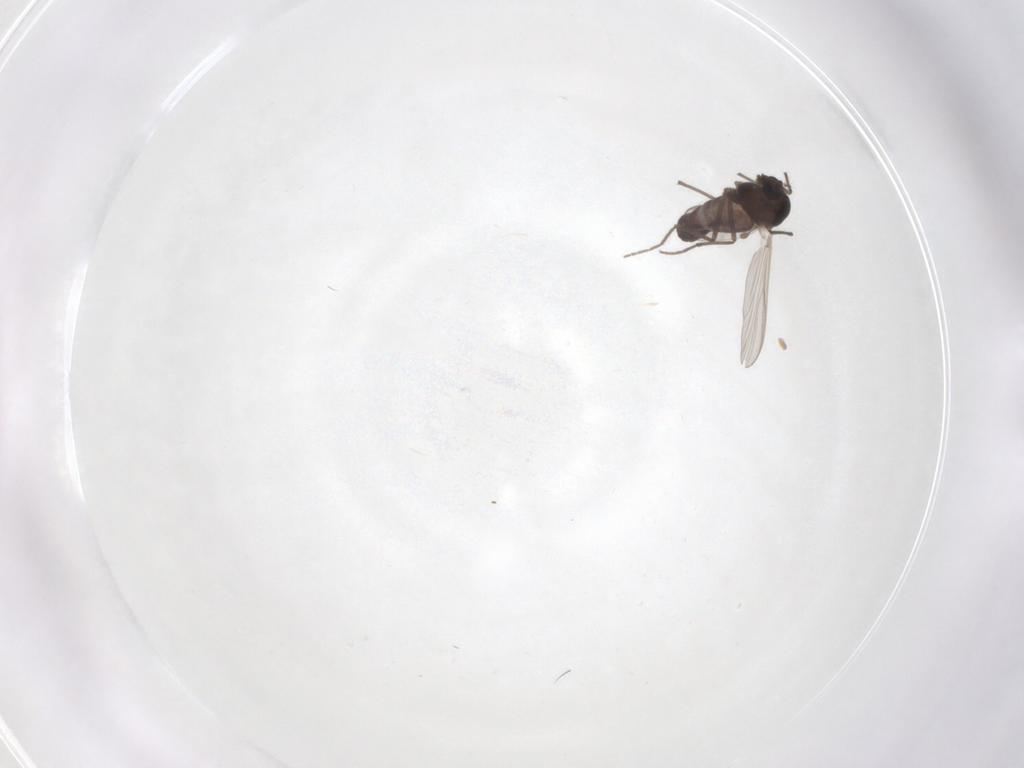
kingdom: Animalia
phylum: Arthropoda
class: Insecta
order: Diptera
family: Chironomidae
